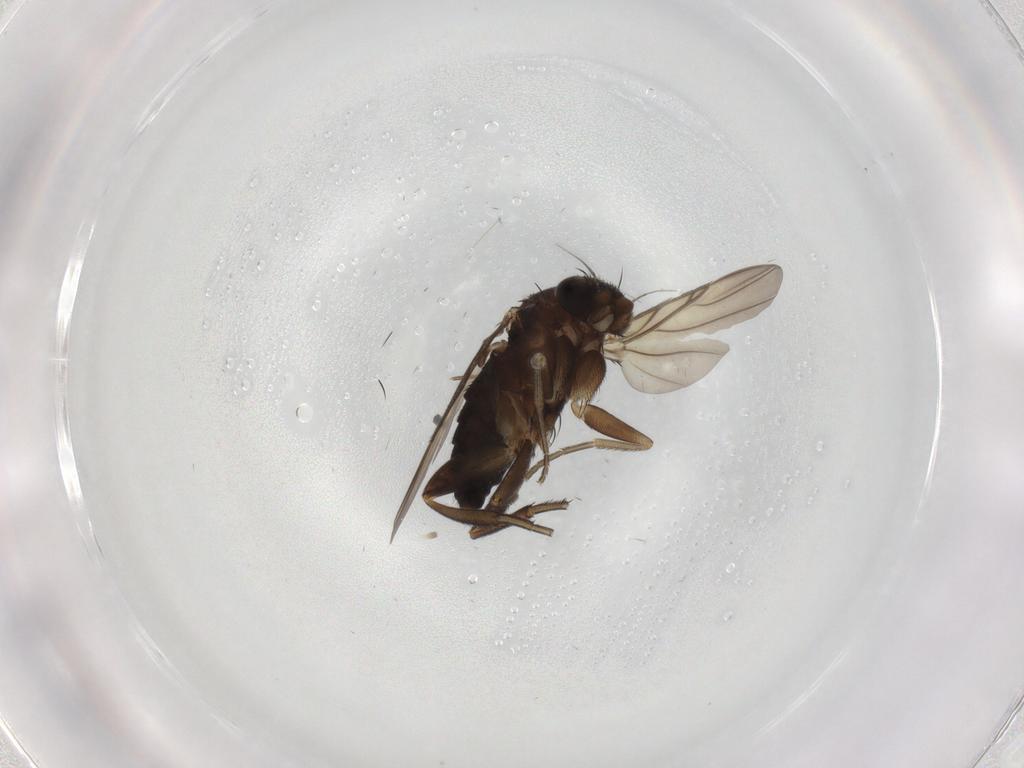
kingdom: Animalia
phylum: Arthropoda
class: Insecta
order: Diptera
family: Phoridae
